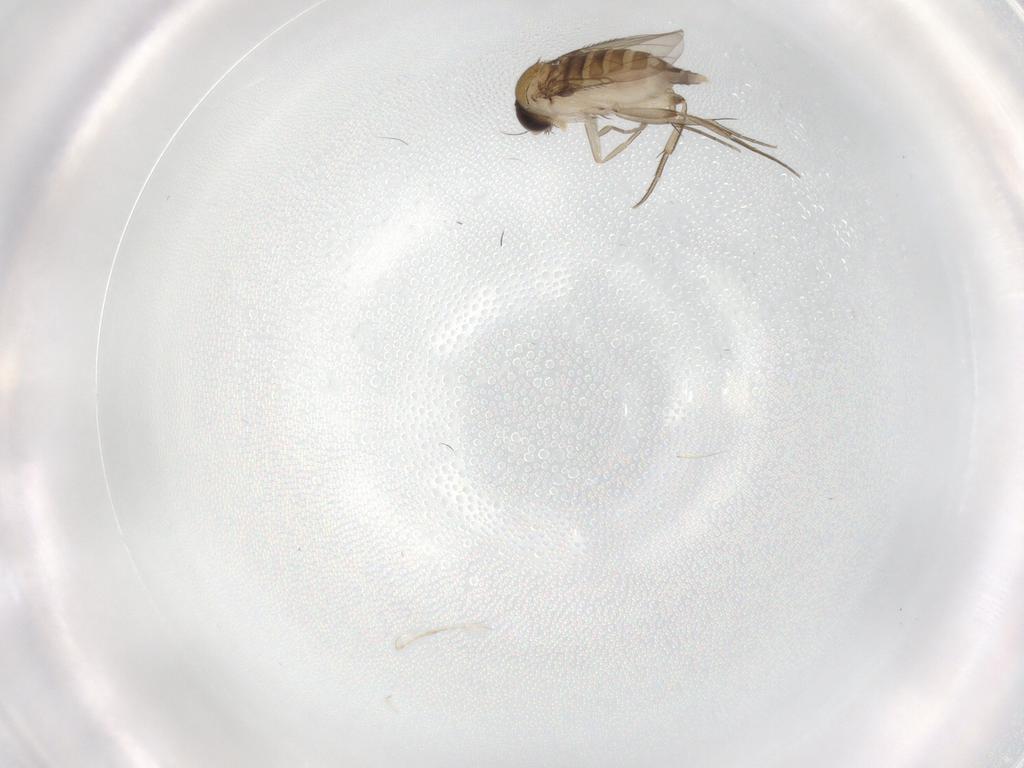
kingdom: Animalia
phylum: Arthropoda
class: Insecta
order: Diptera
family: Phoridae
